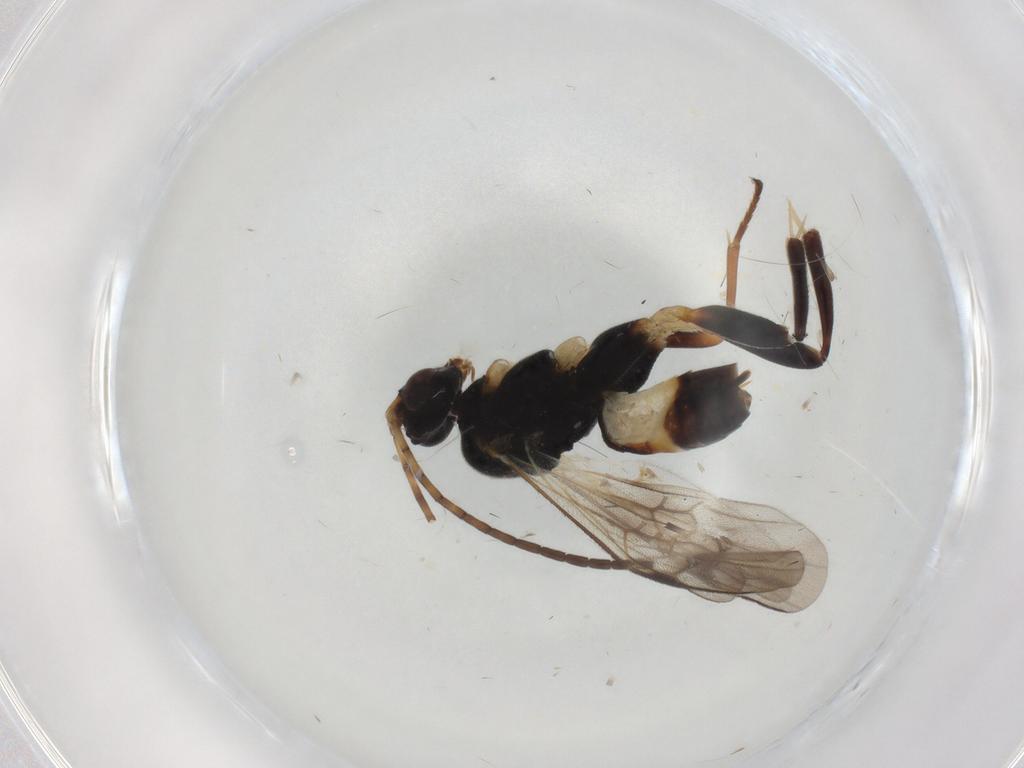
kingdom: Animalia
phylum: Arthropoda
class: Insecta
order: Hymenoptera
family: Braconidae
